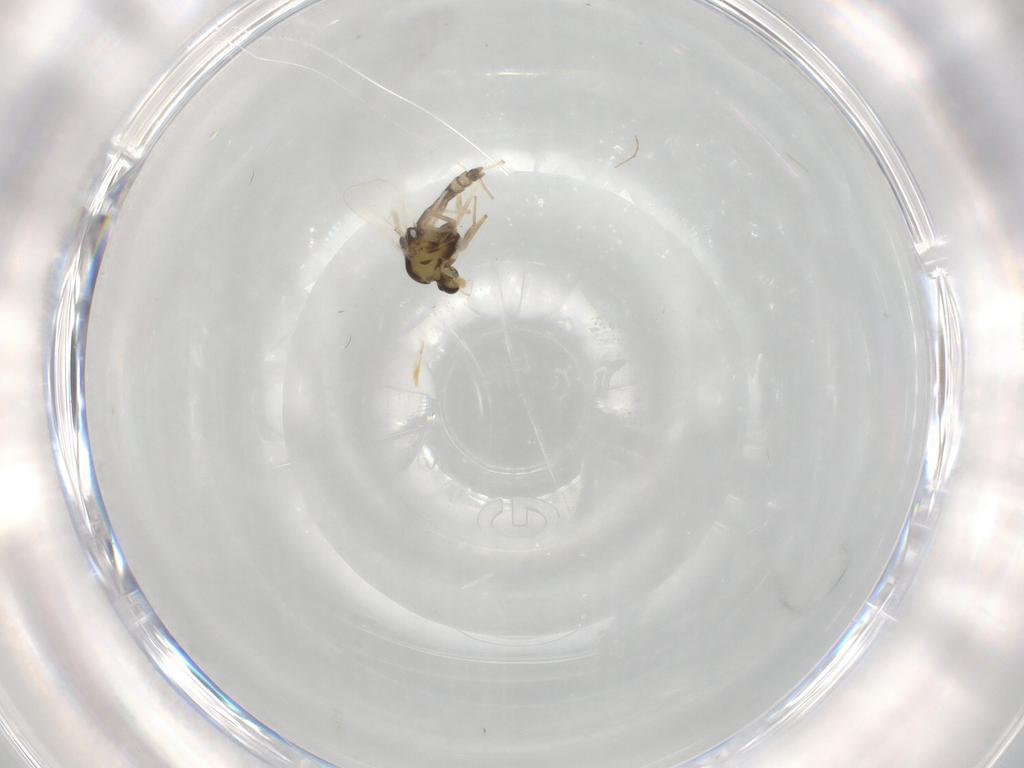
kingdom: Animalia
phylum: Arthropoda
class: Insecta
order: Diptera
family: Chironomidae
